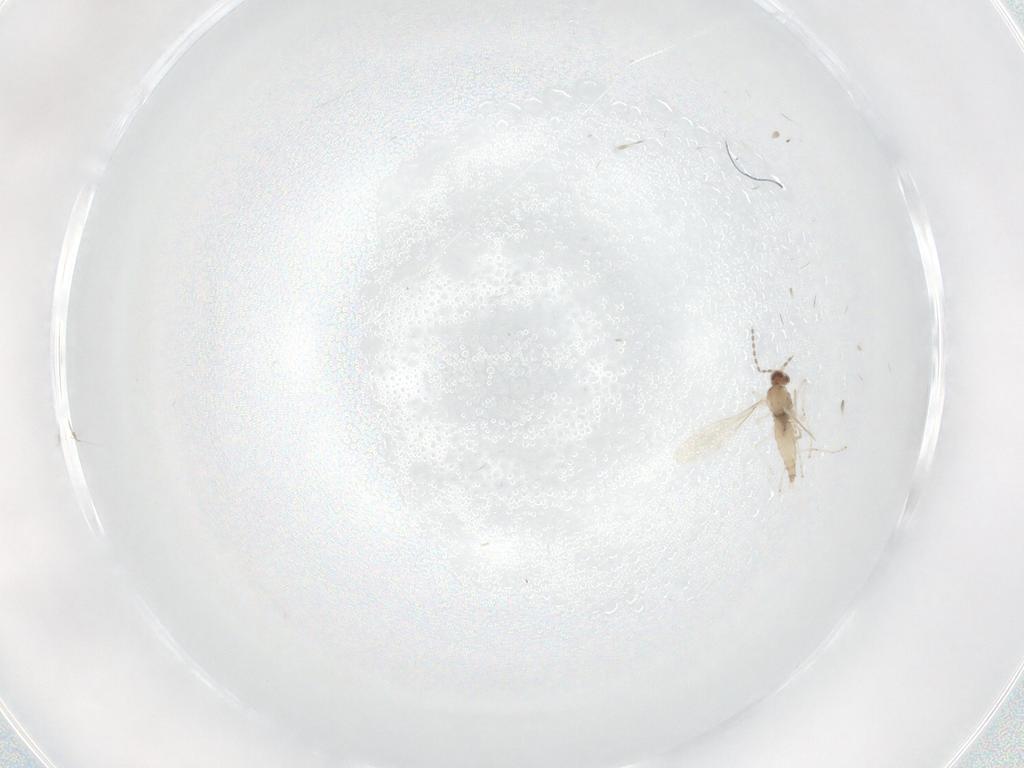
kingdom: Animalia
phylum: Arthropoda
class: Insecta
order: Diptera
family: Cecidomyiidae
